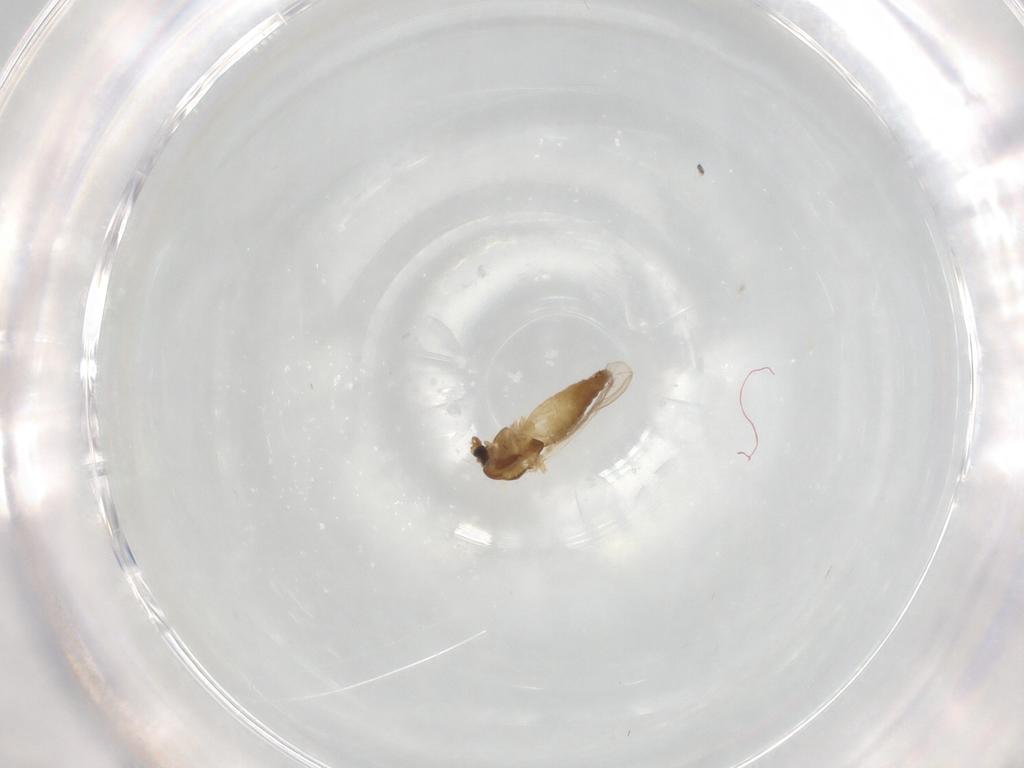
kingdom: Animalia
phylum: Arthropoda
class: Insecta
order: Diptera
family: Chironomidae
